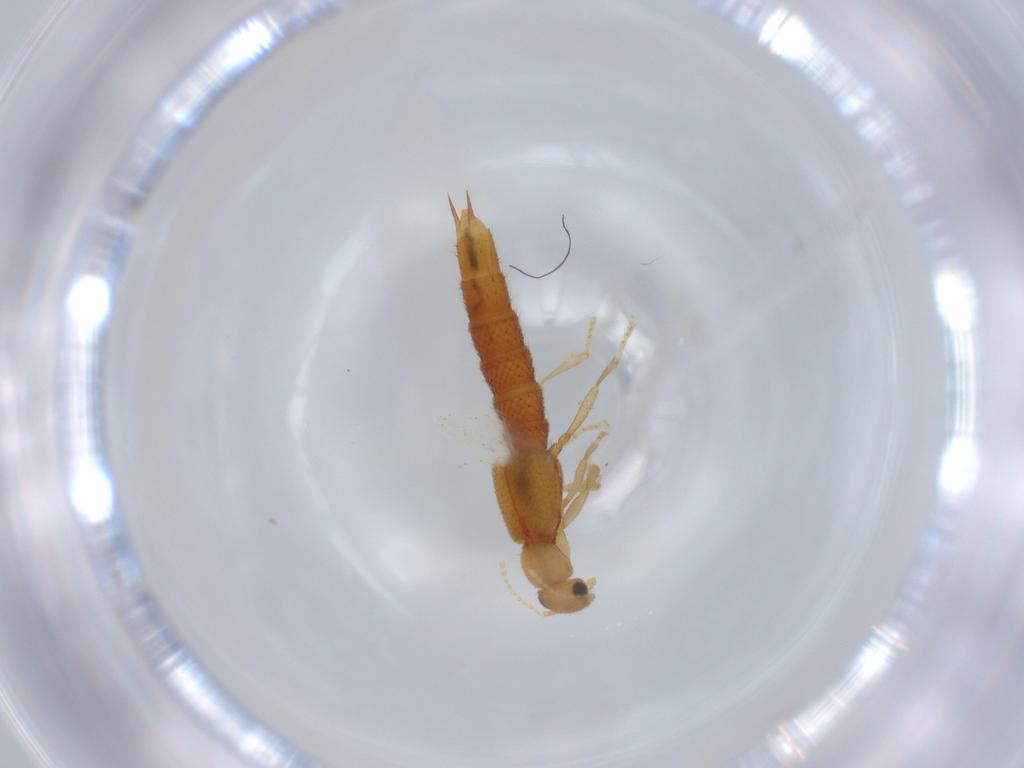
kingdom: Animalia
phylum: Arthropoda
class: Insecta
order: Coleoptera
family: Staphylinidae
